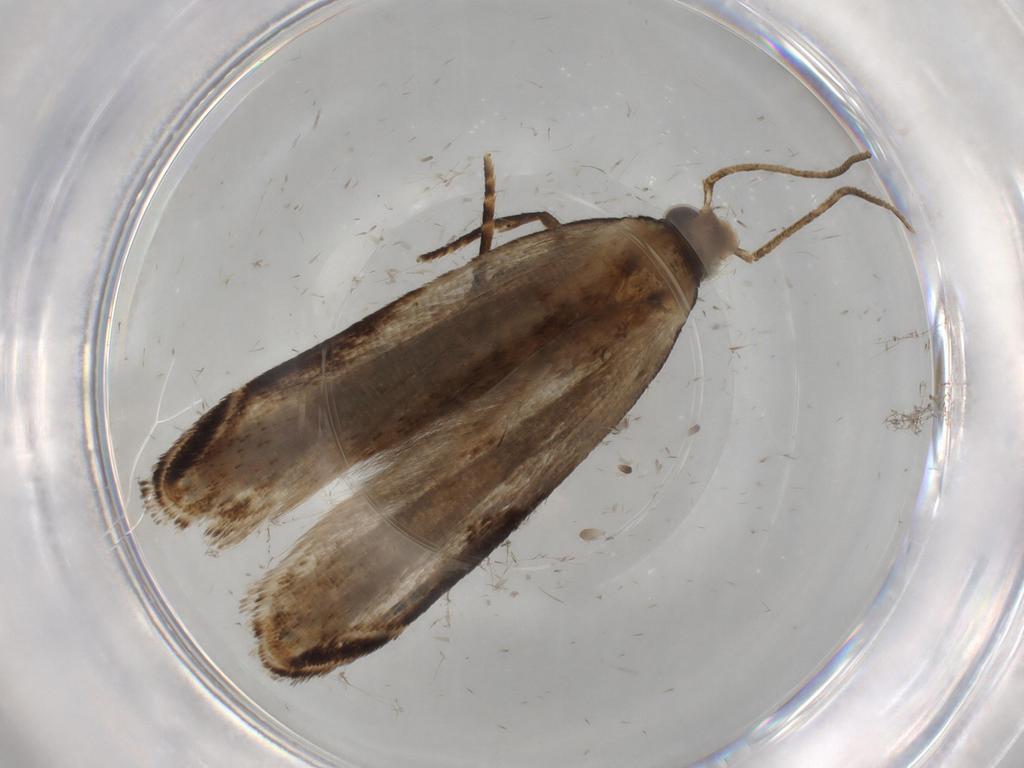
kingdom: Animalia
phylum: Arthropoda
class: Insecta
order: Lepidoptera
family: Gelechiidae
